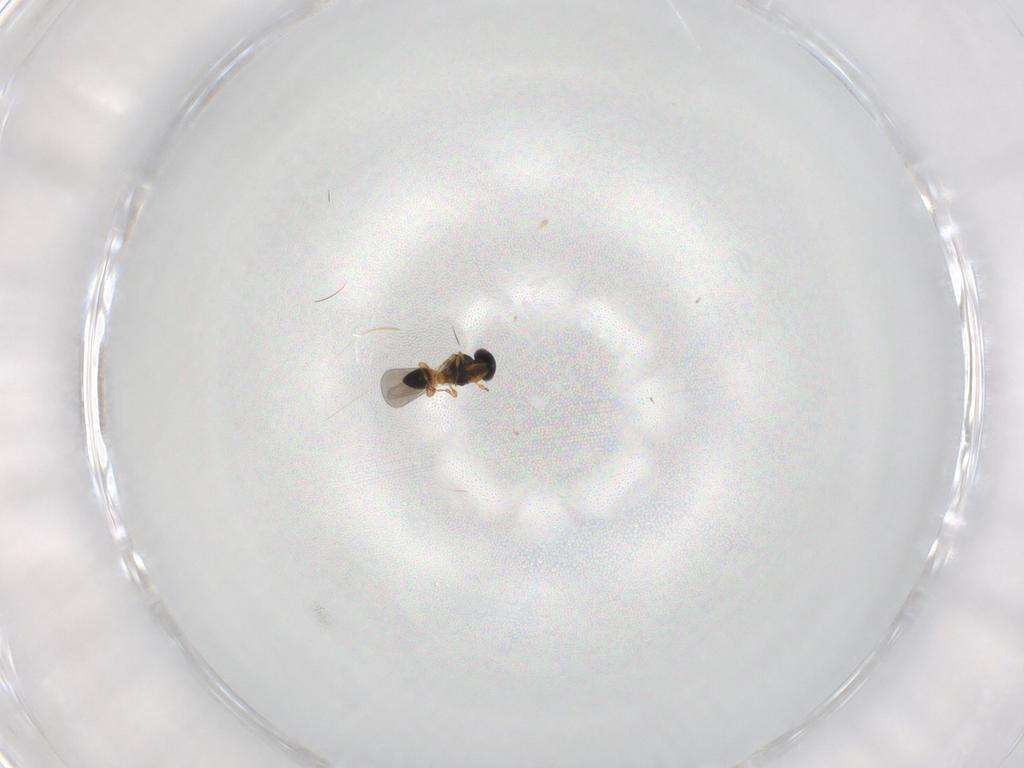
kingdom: Animalia
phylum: Arthropoda
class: Insecta
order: Hymenoptera
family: Platygastridae
